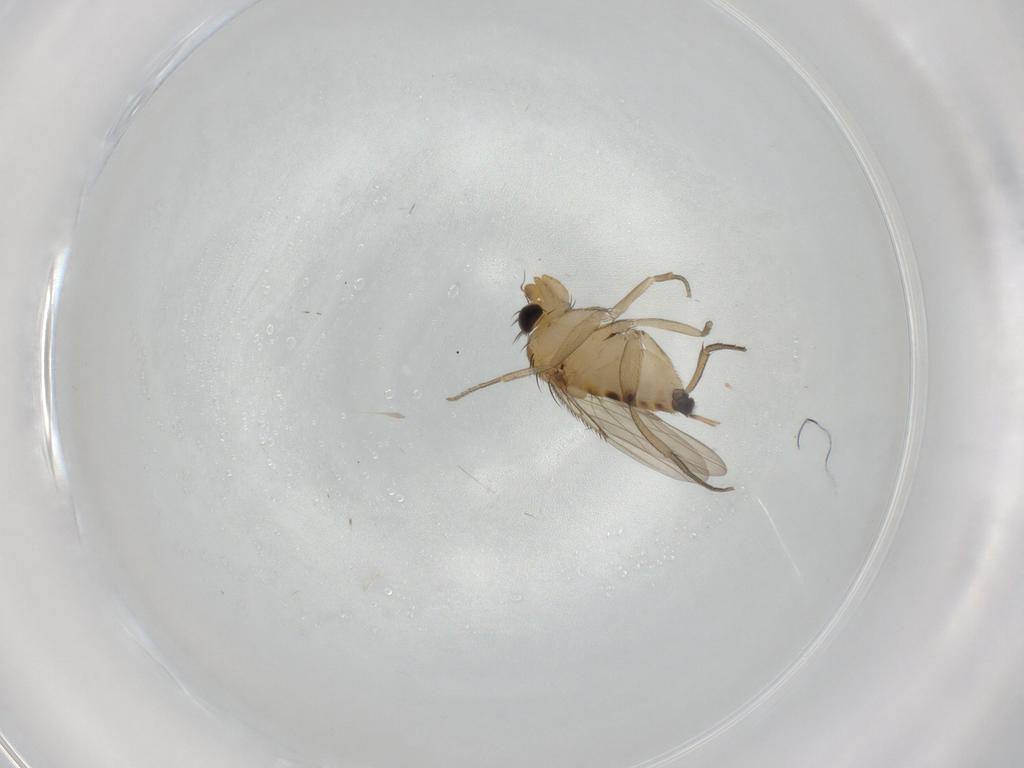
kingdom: Animalia
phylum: Arthropoda
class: Insecta
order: Diptera
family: Phoridae
